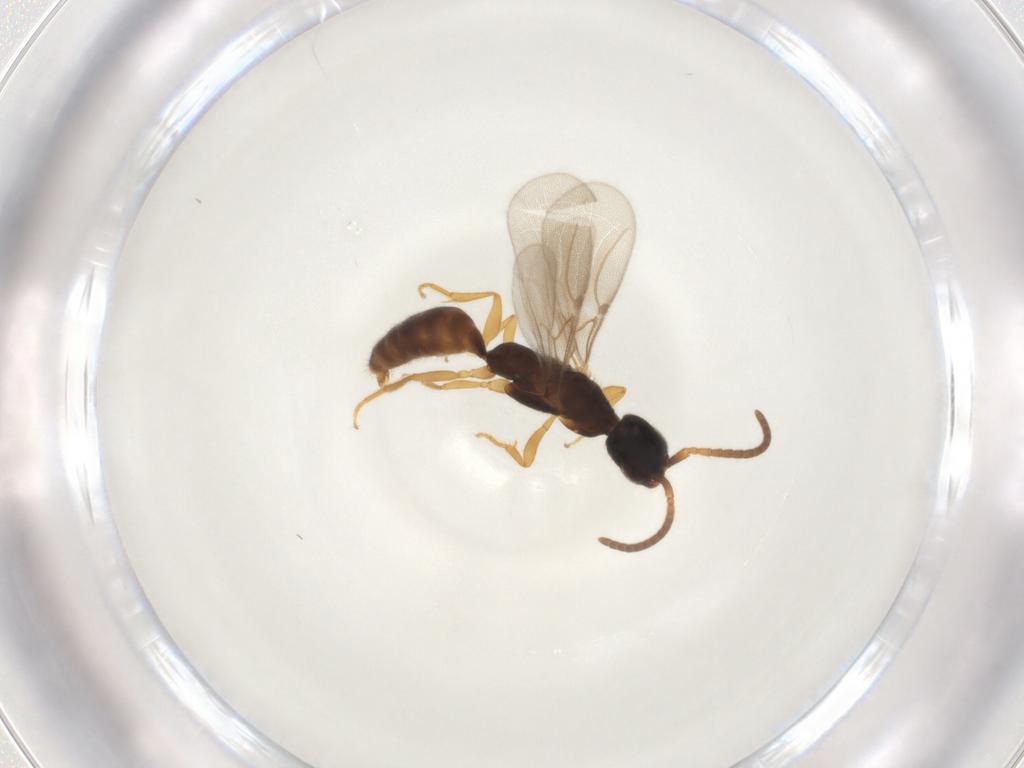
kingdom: Animalia
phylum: Arthropoda
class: Insecta
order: Hymenoptera
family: Bethylidae
